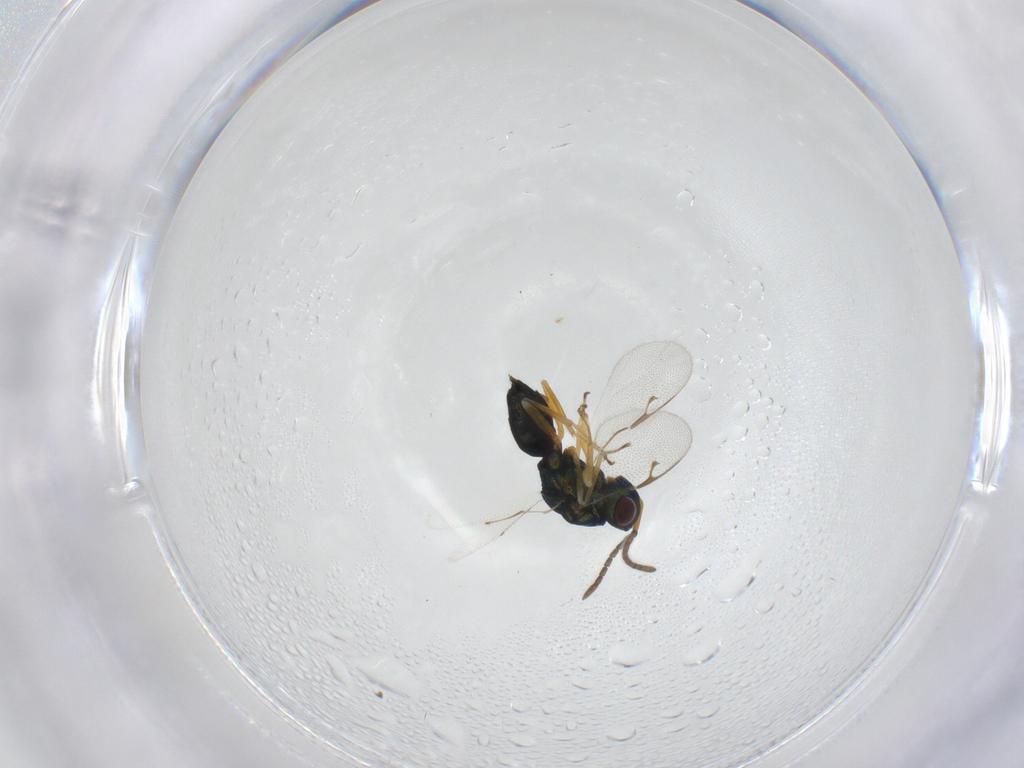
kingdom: Animalia
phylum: Arthropoda
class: Insecta
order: Hymenoptera
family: Pteromalidae
